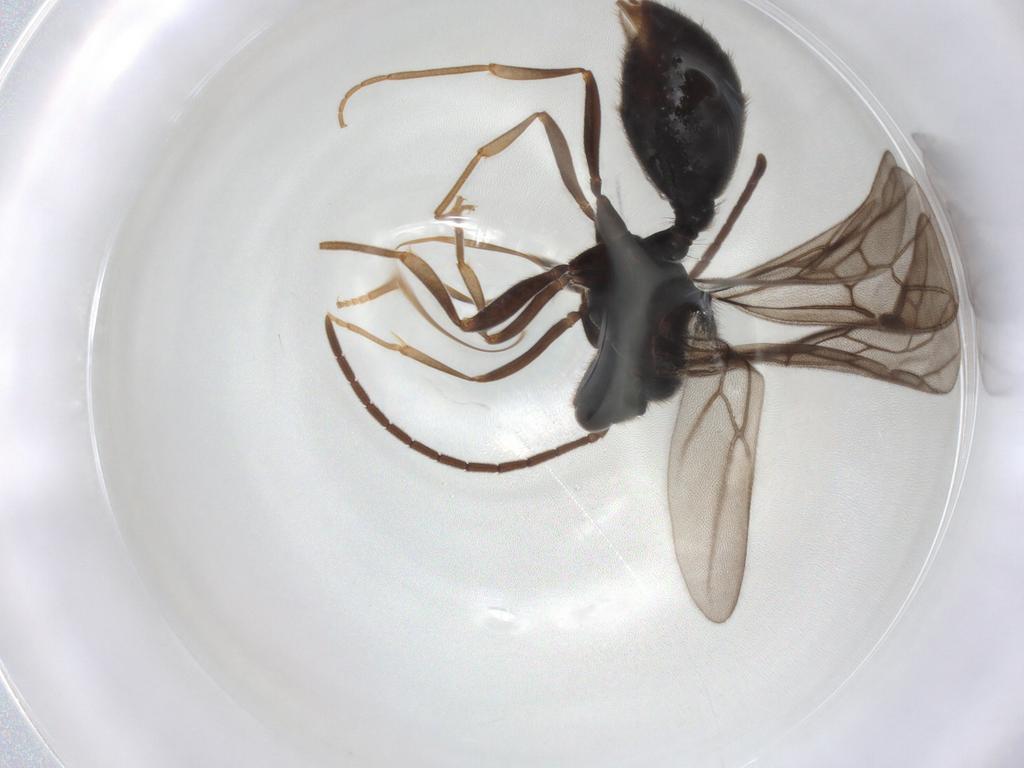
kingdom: Animalia
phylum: Arthropoda
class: Insecta
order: Hymenoptera
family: Formicidae
